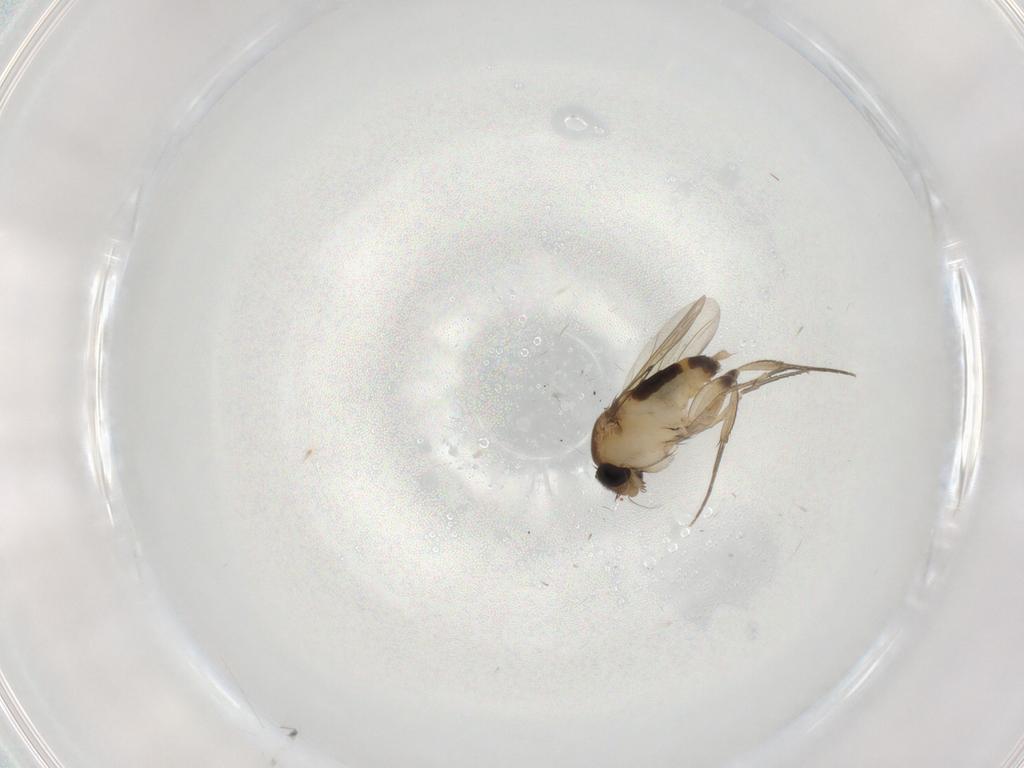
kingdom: Animalia
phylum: Arthropoda
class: Insecta
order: Diptera
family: Phoridae
